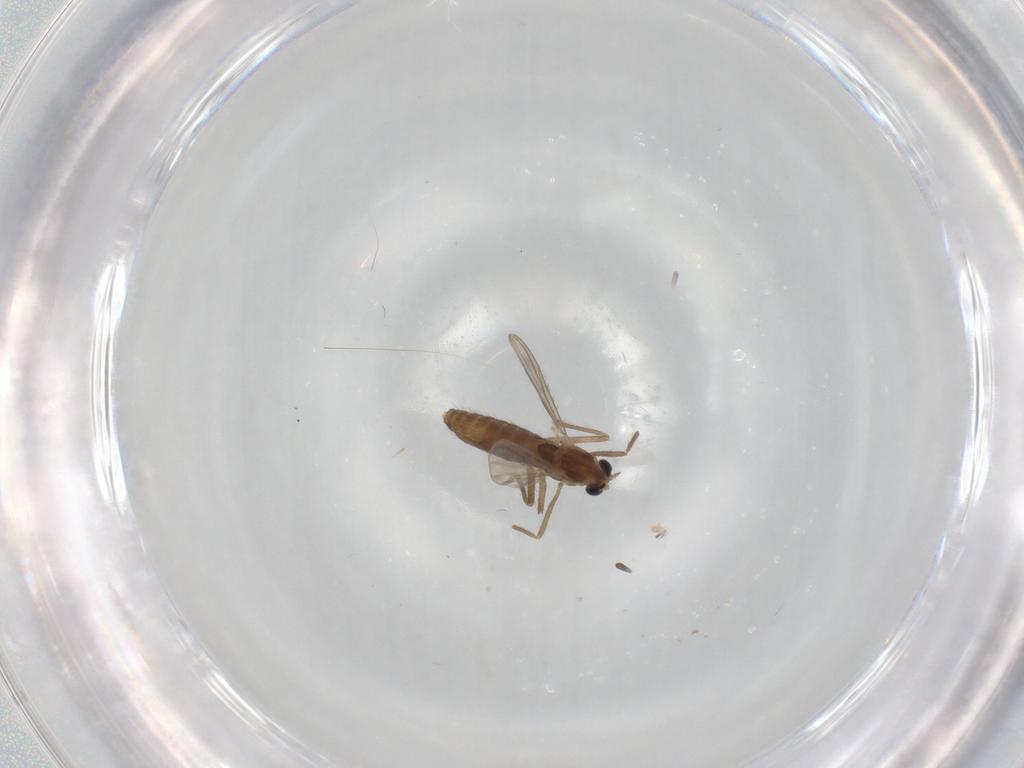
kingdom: Animalia
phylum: Arthropoda
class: Insecta
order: Diptera
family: Chironomidae
